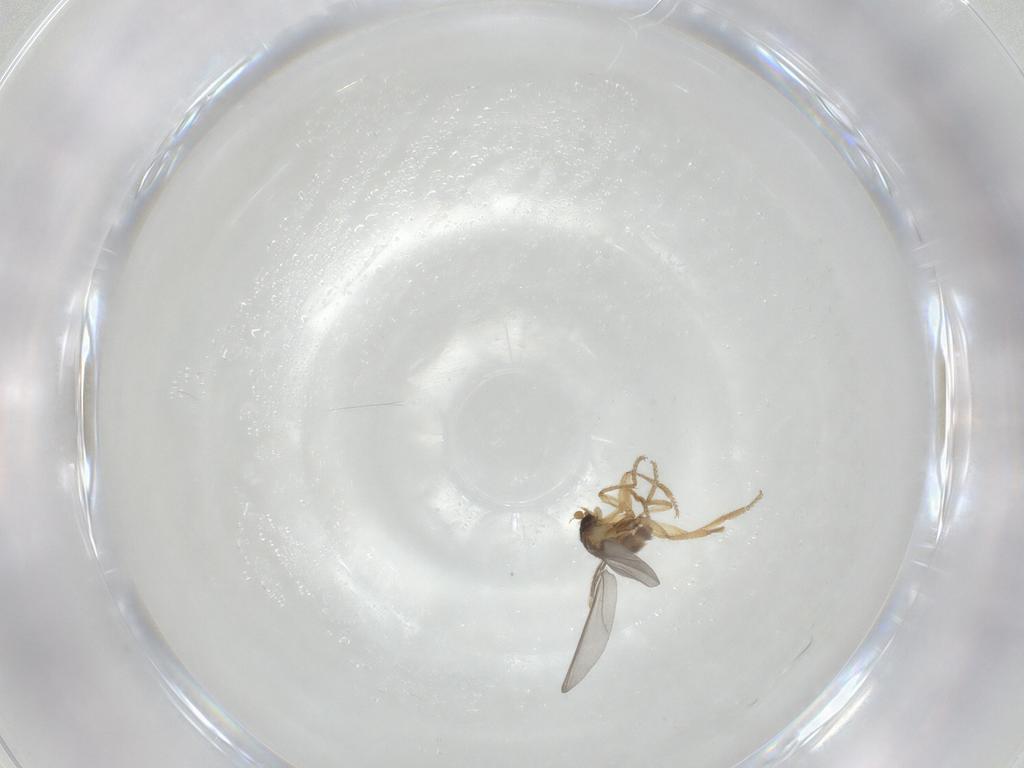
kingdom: Animalia
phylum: Arthropoda
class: Insecta
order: Diptera
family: Phoridae
